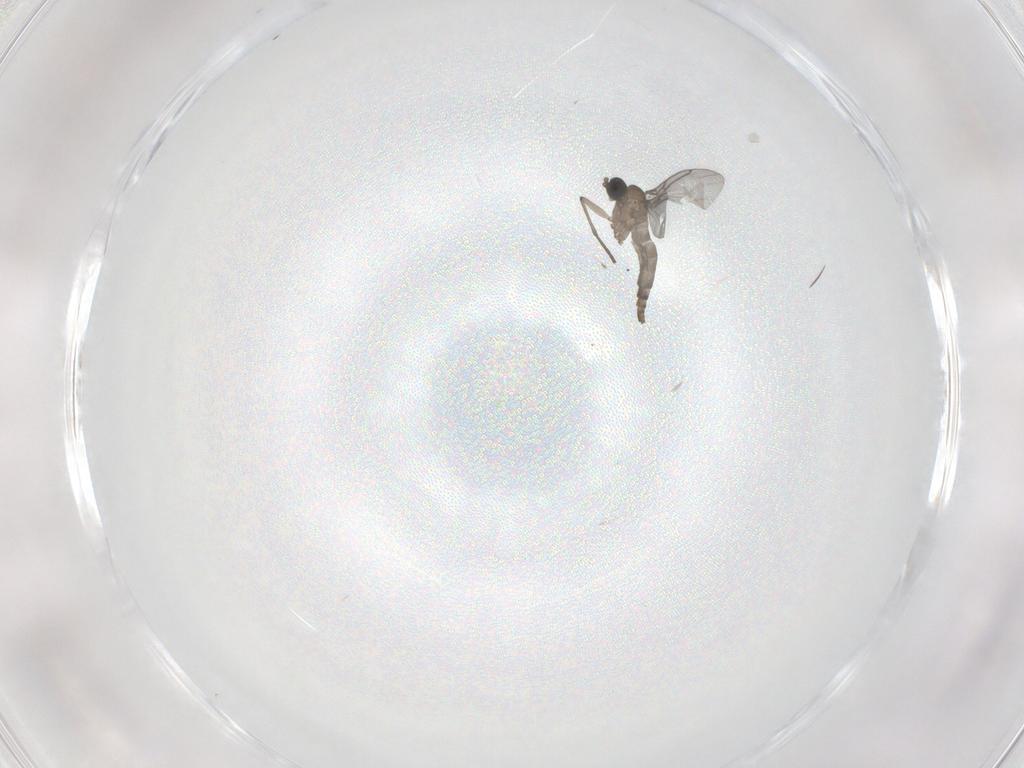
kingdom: Animalia
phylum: Arthropoda
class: Insecta
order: Diptera
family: Sciaridae
